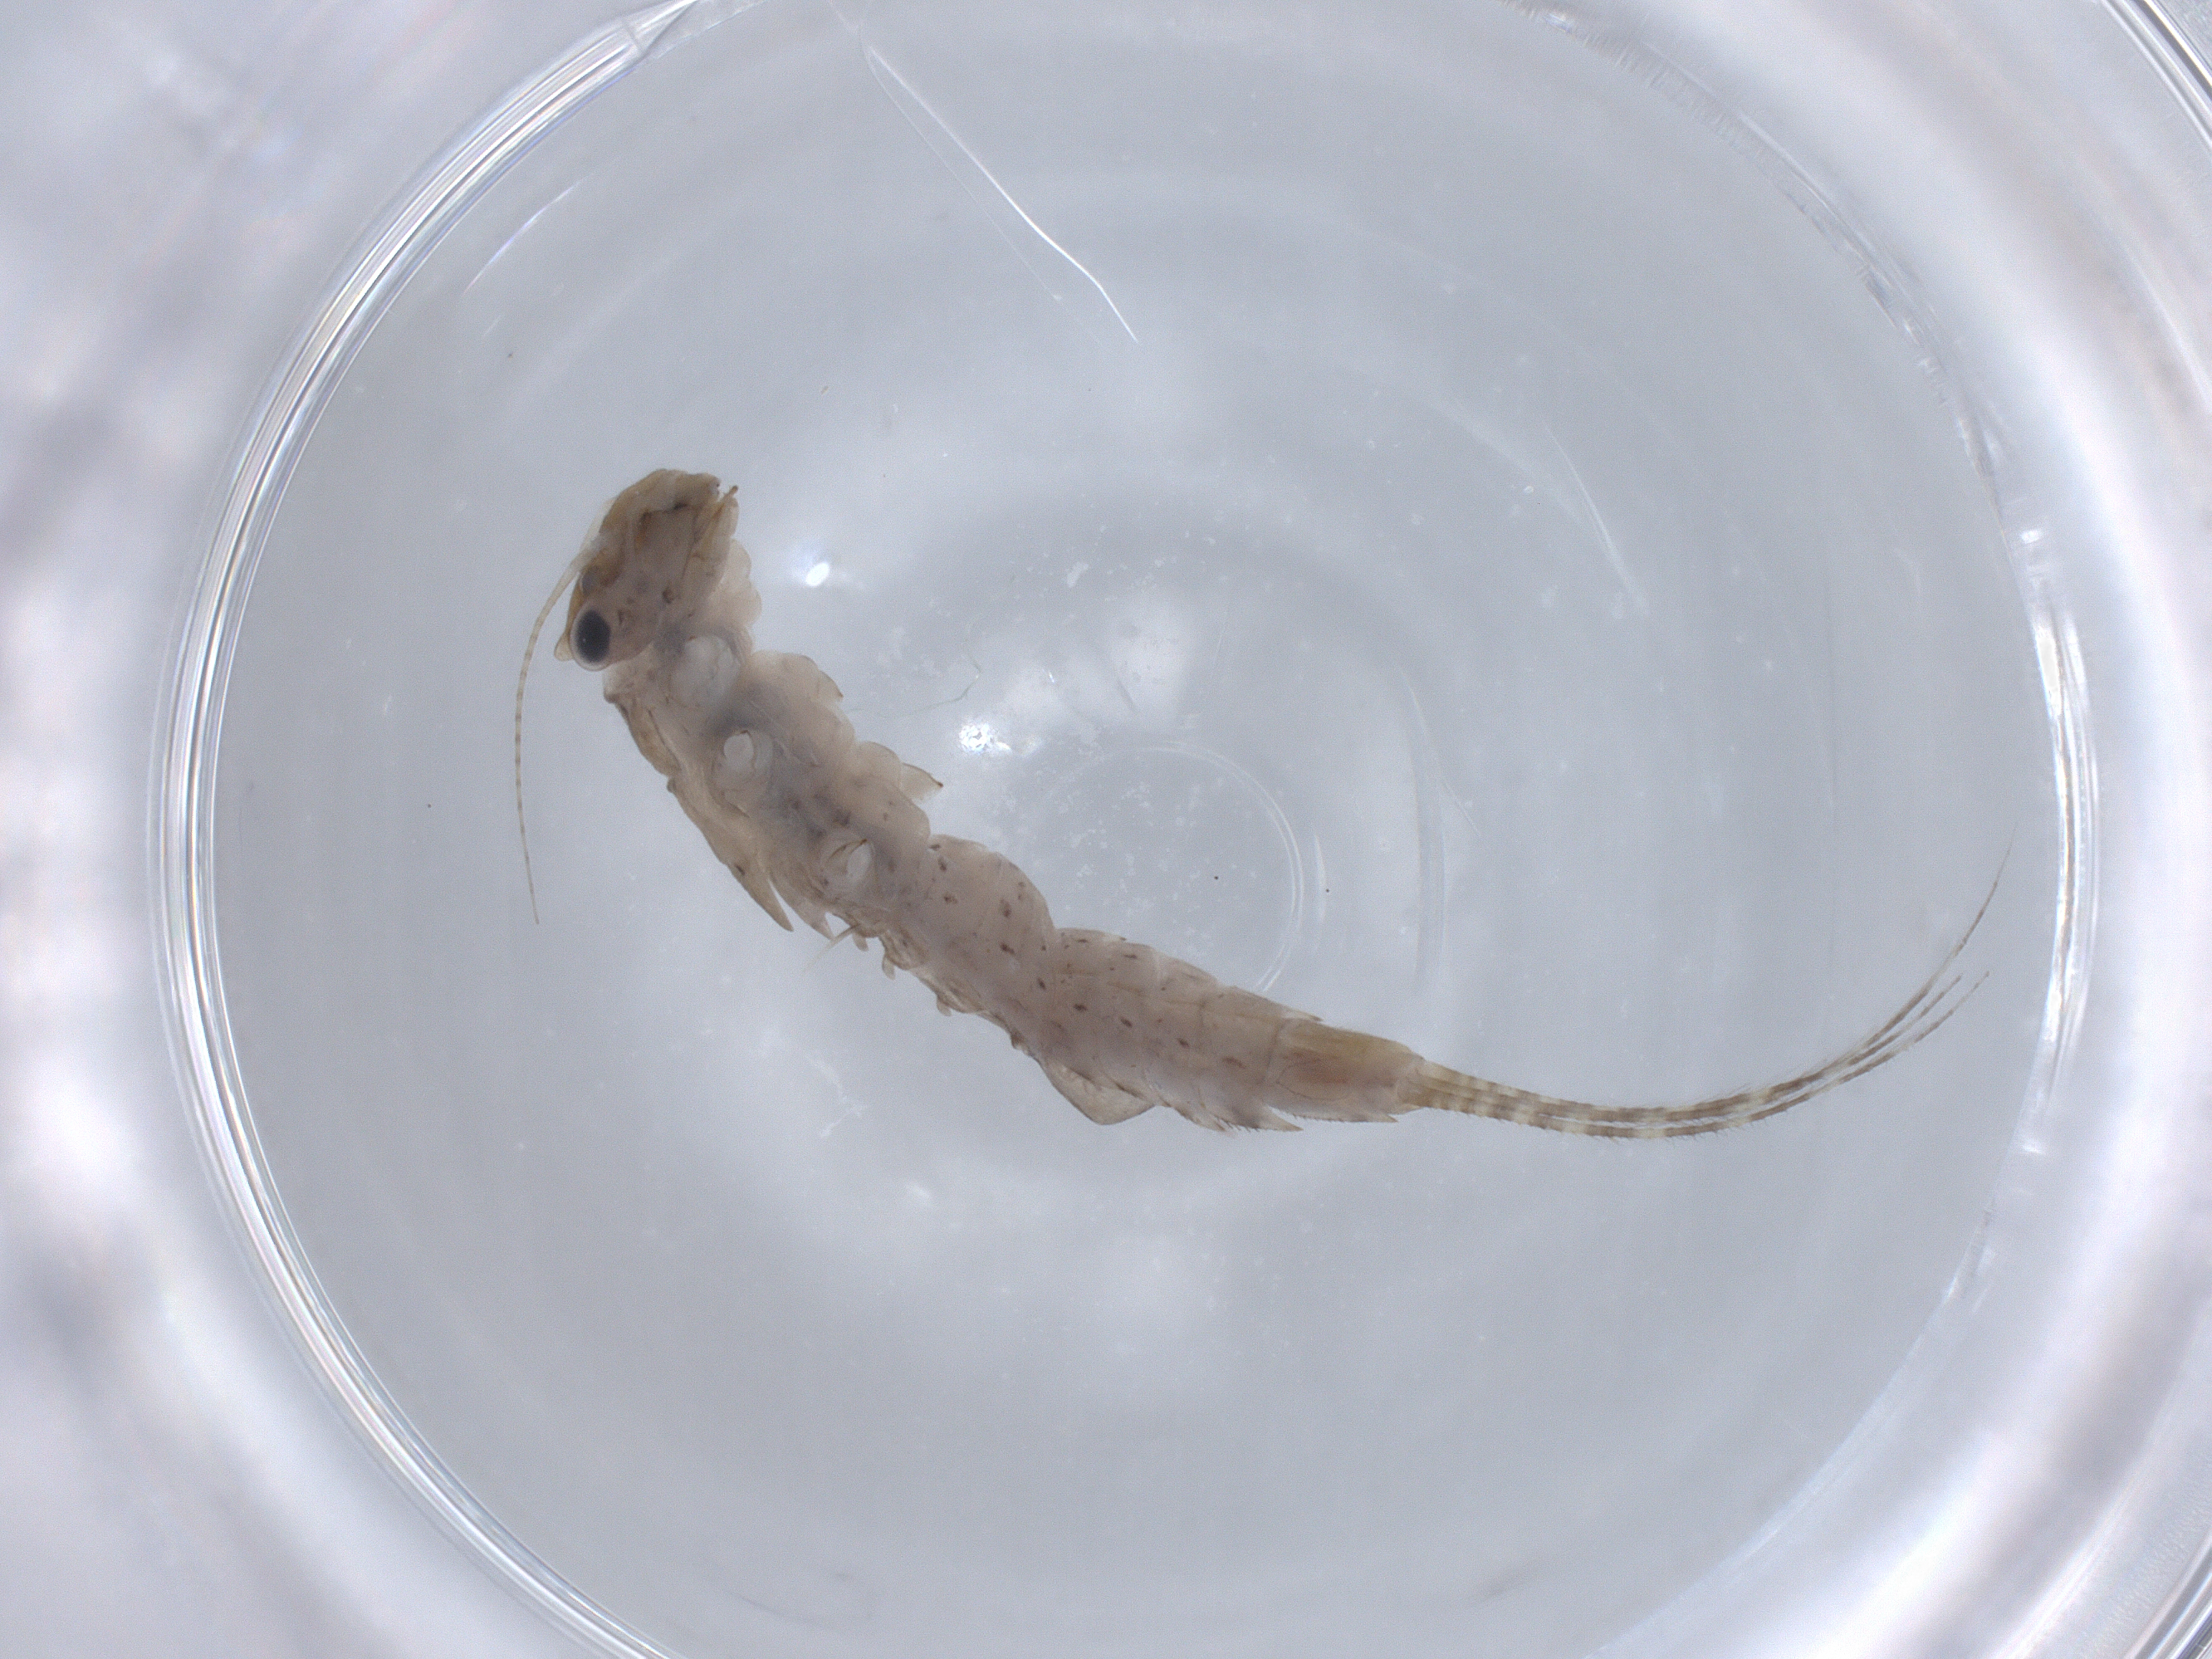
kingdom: Animalia
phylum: Arthropoda
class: Insecta
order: Ephemeroptera
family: Ephemerellidae
